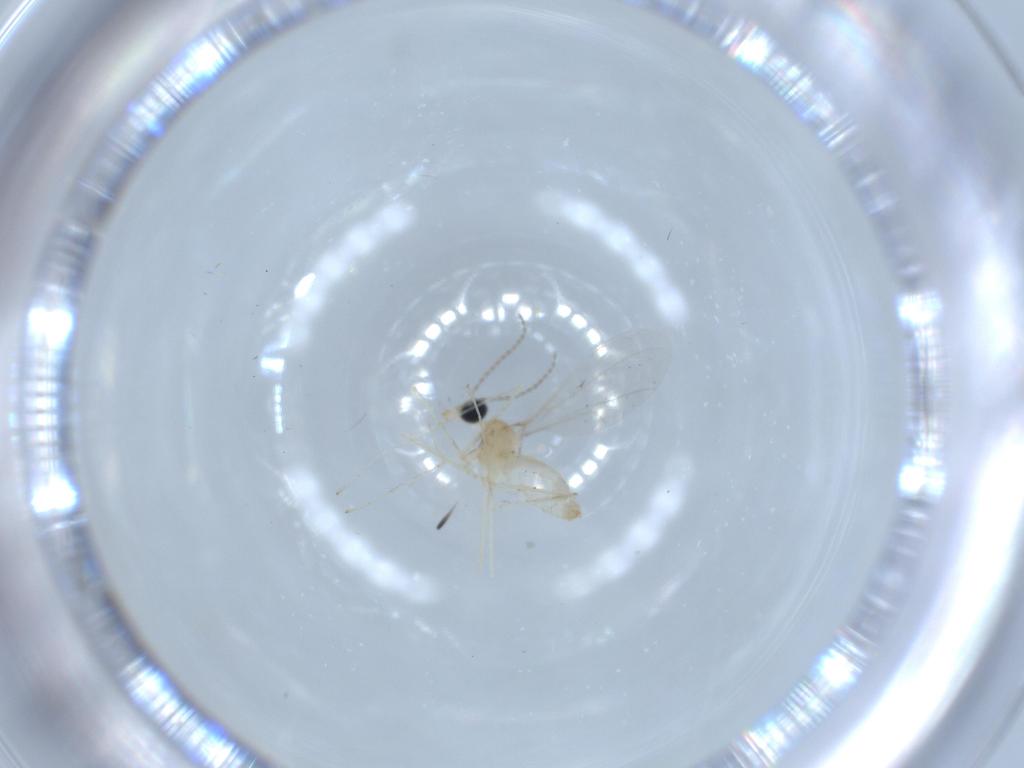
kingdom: Animalia
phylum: Arthropoda
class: Insecta
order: Diptera
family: Cecidomyiidae
